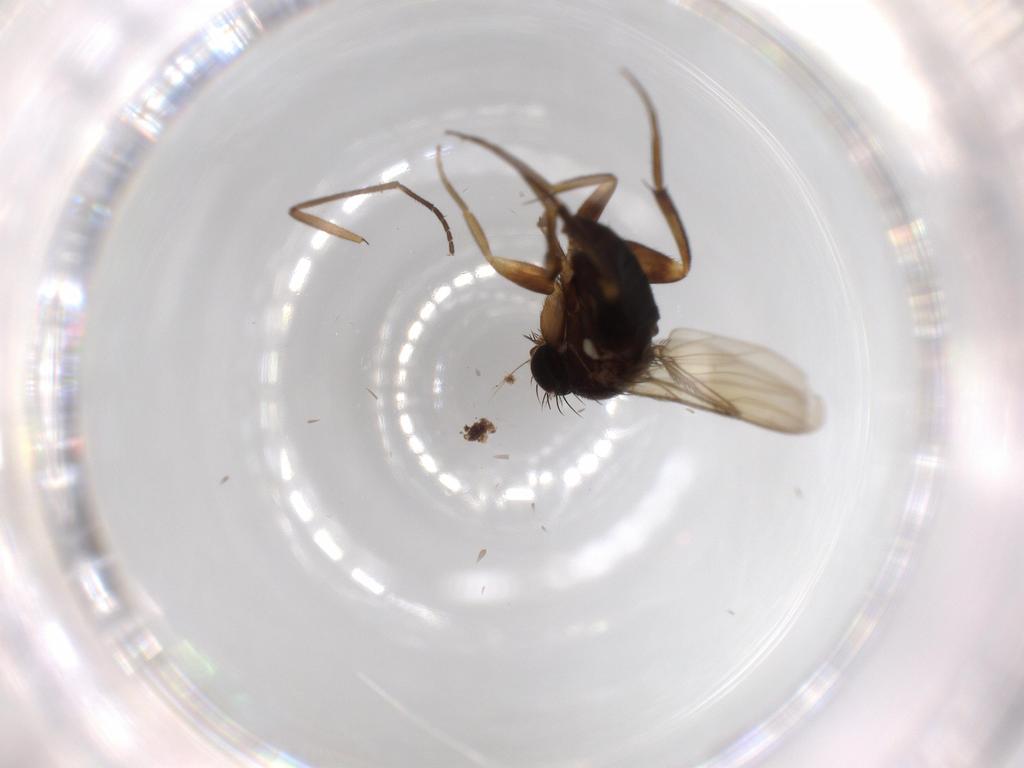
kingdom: Animalia
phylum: Arthropoda
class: Insecta
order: Diptera
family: Phoridae
